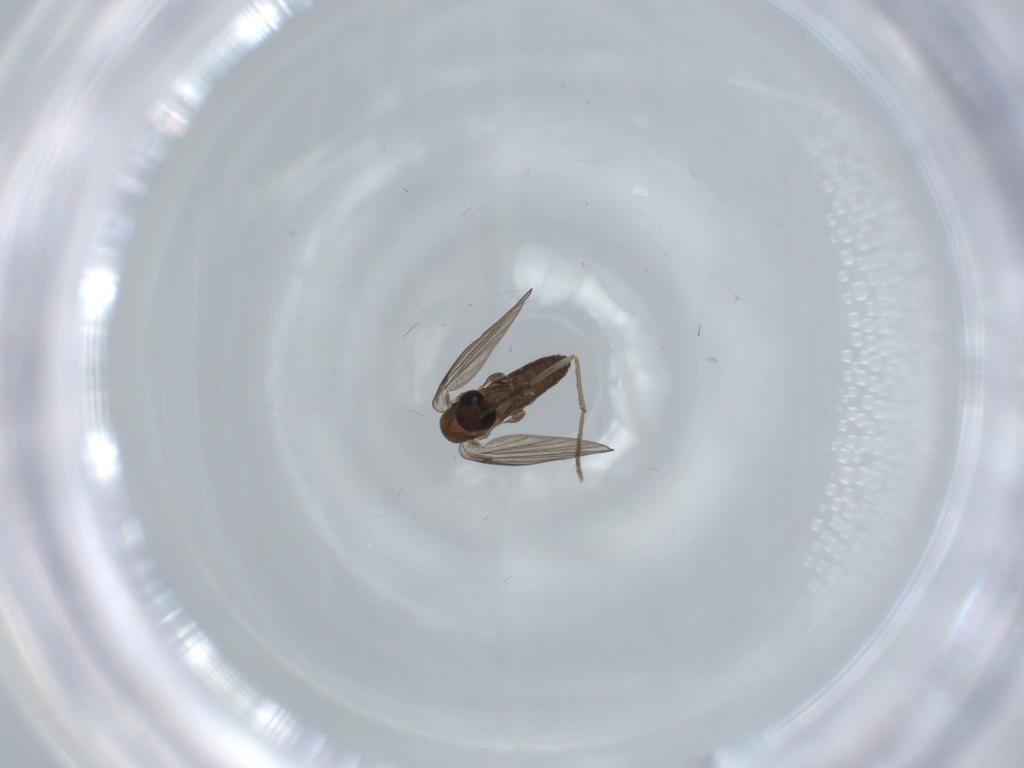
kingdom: Animalia
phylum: Arthropoda
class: Insecta
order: Diptera
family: Psychodidae
